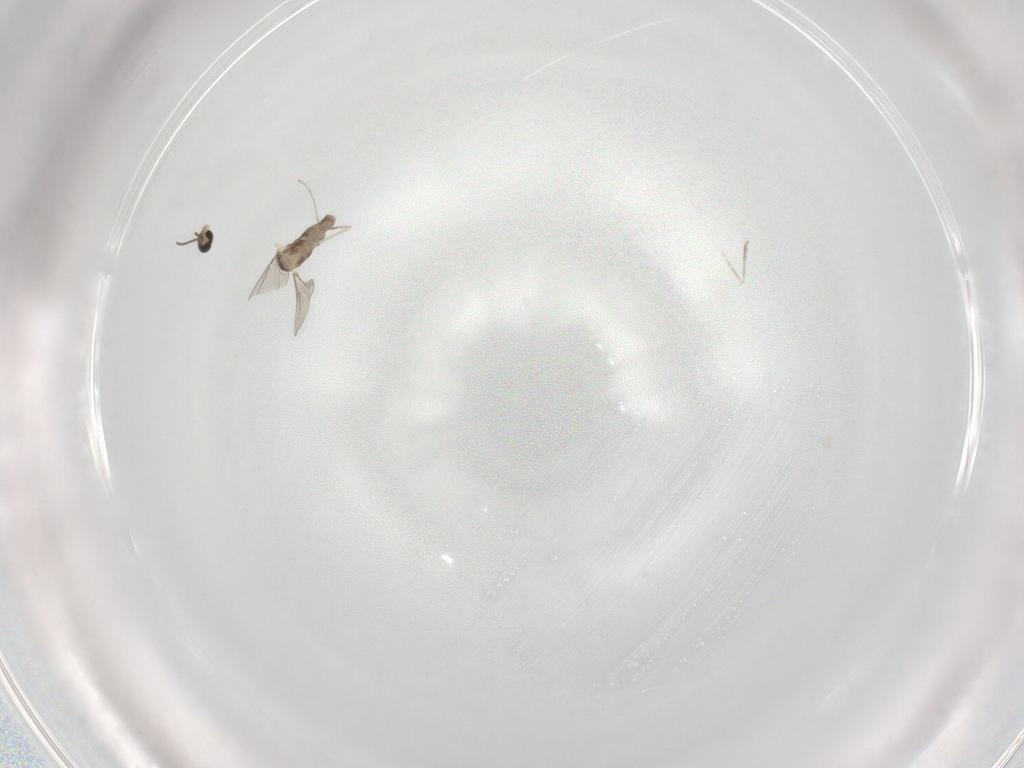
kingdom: Animalia
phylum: Arthropoda
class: Insecta
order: Diptera
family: Cecidomyiidae
